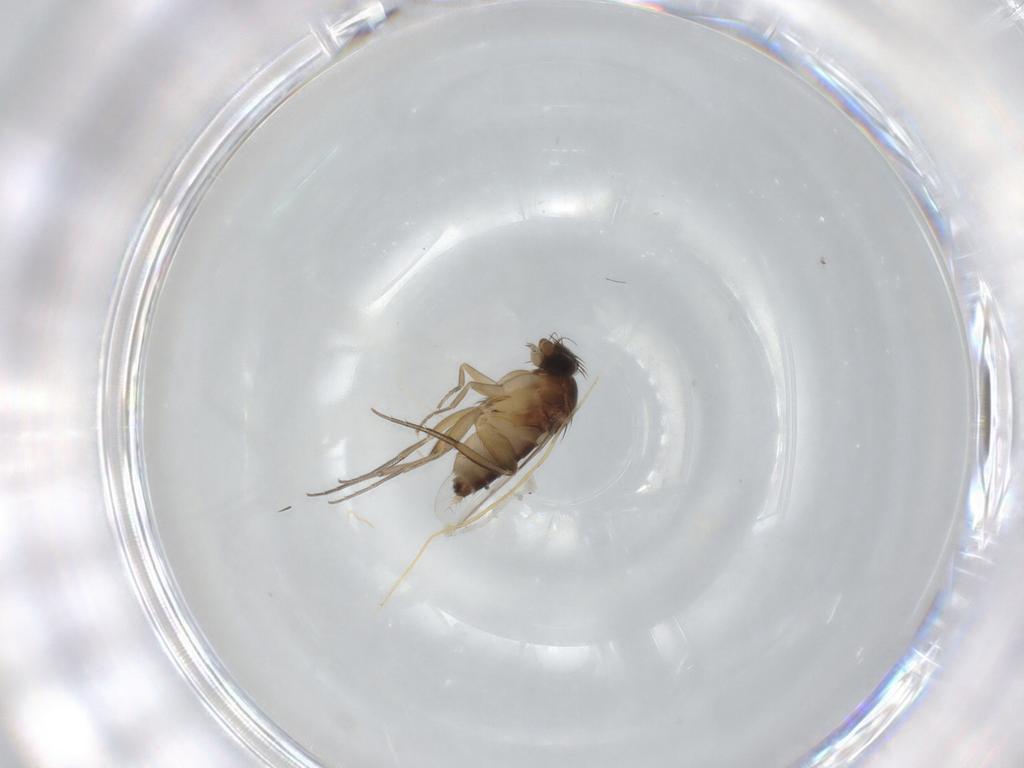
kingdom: Animalia
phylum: Arthropoda
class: Insecta
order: Diptera
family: Phoridae
